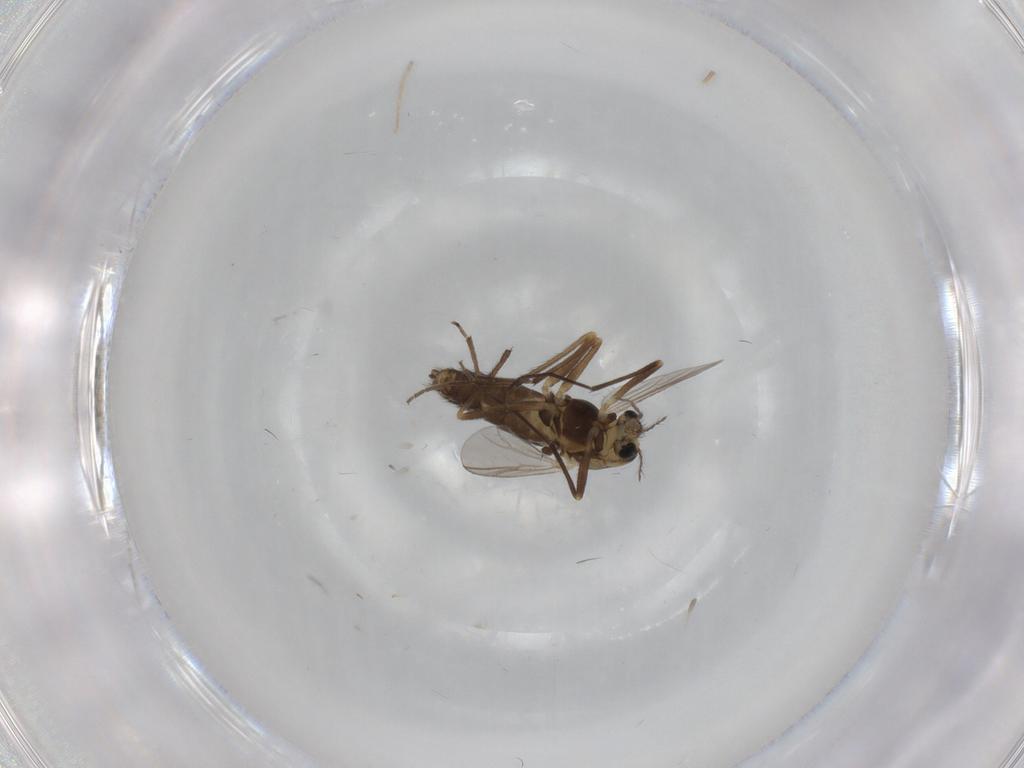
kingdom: Animalia
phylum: Arthropoda
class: Insecta
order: Diptera
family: Chironomidae
